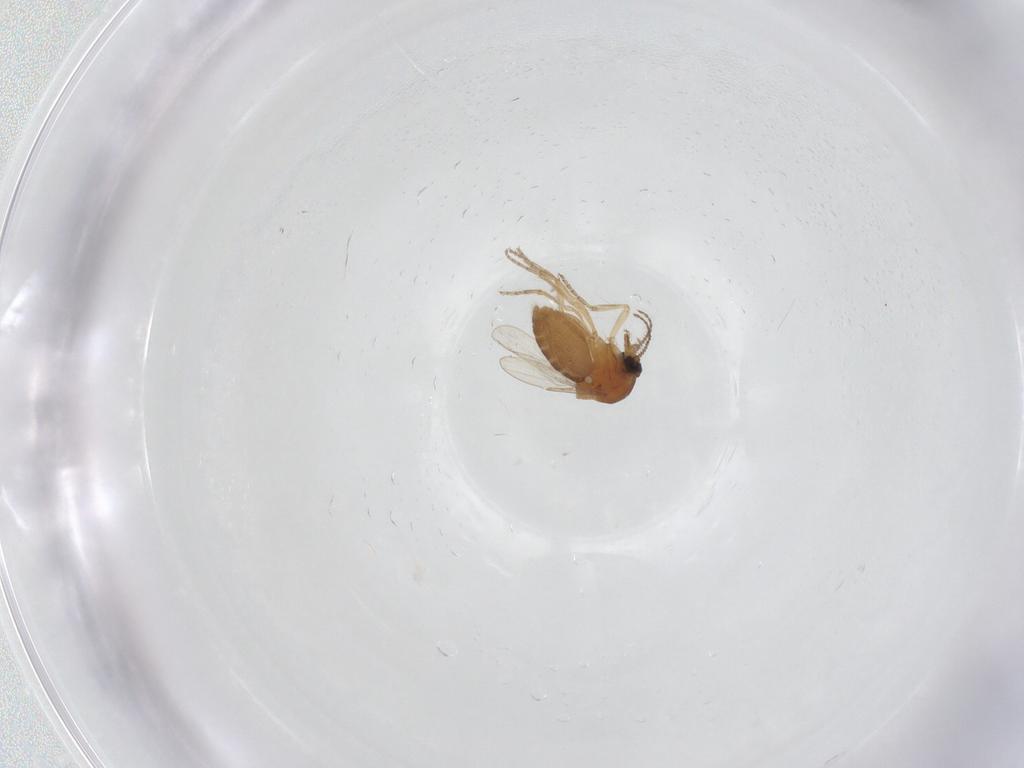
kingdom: Animalia
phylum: Arthropoda
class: Insecta
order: Diptera
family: Ceratopogonidae
